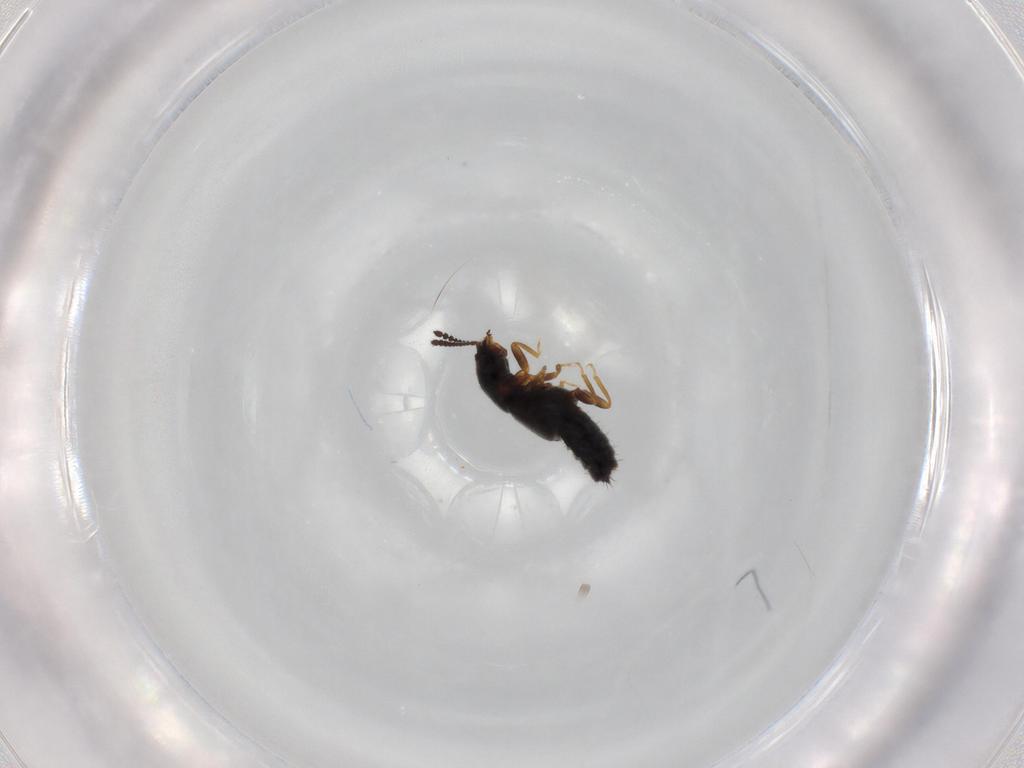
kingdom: Animalia
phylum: Arthropoda
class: Insecta
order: Coleoptera
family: Staphylinidae
